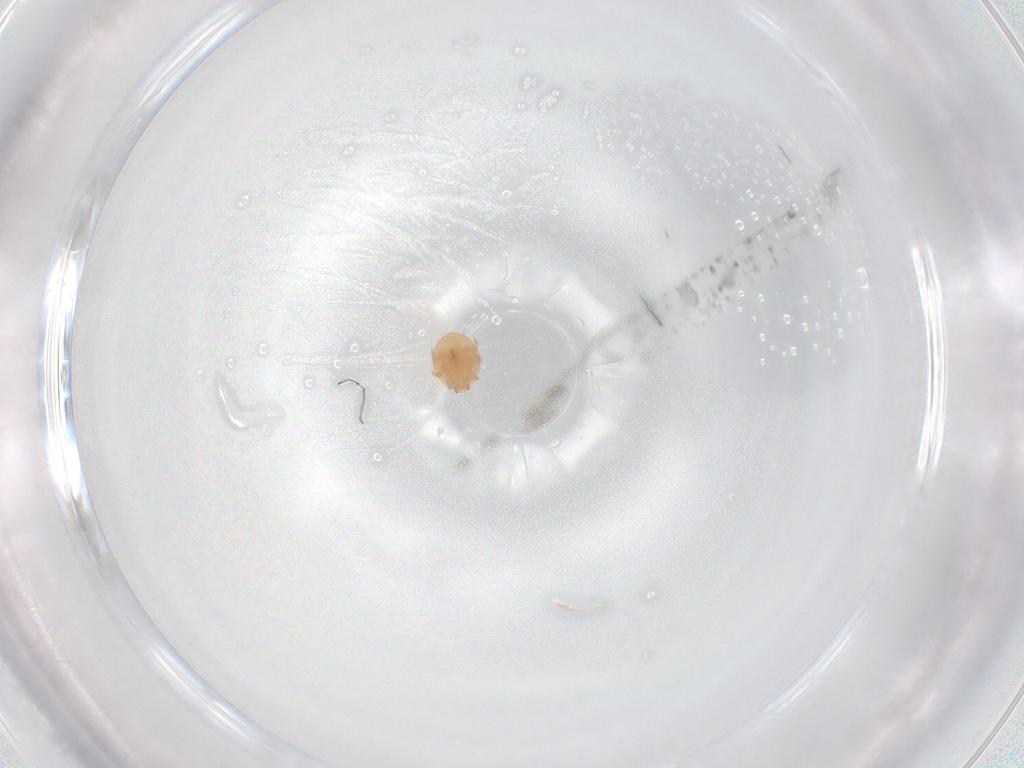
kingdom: Animalia
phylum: Arthropoda
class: Arachnida
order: Mesostigmata
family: Trematuridae
